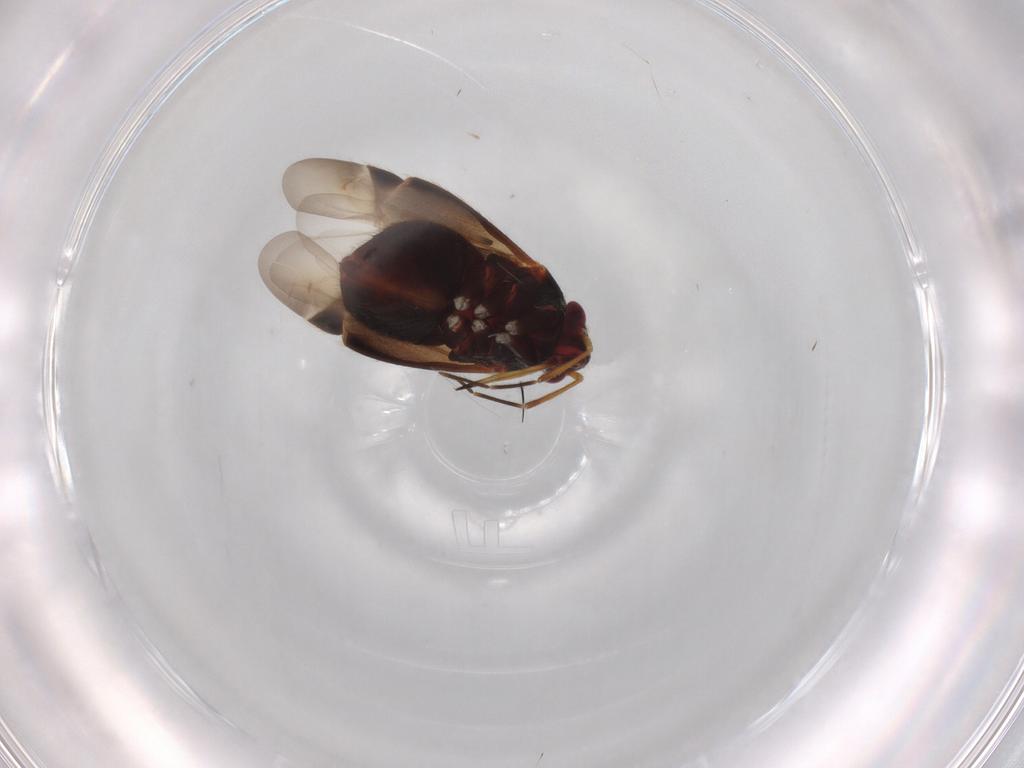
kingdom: Animalia
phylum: Arthropoda
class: Insecta
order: Hemiptera
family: Miridae
